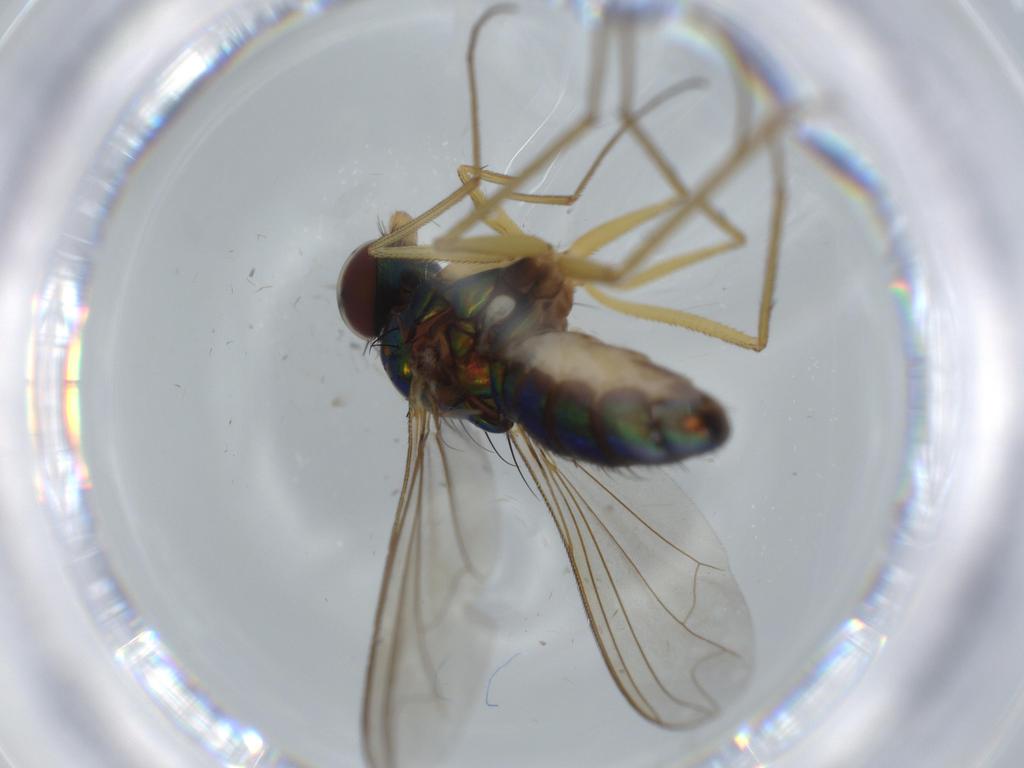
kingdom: Animalia
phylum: Arthropoda
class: Insecta
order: Diptera
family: Dolichopodidae
